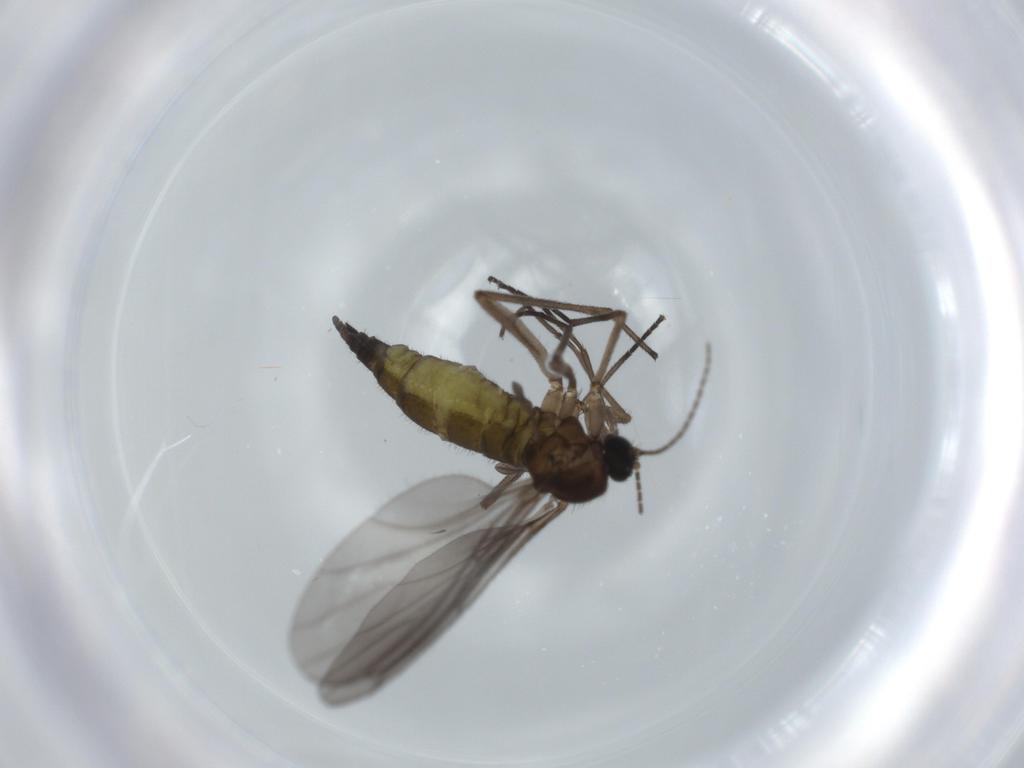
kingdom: Animalia
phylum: Arthropoda
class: Insecta
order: Diptera
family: Sciaridae
